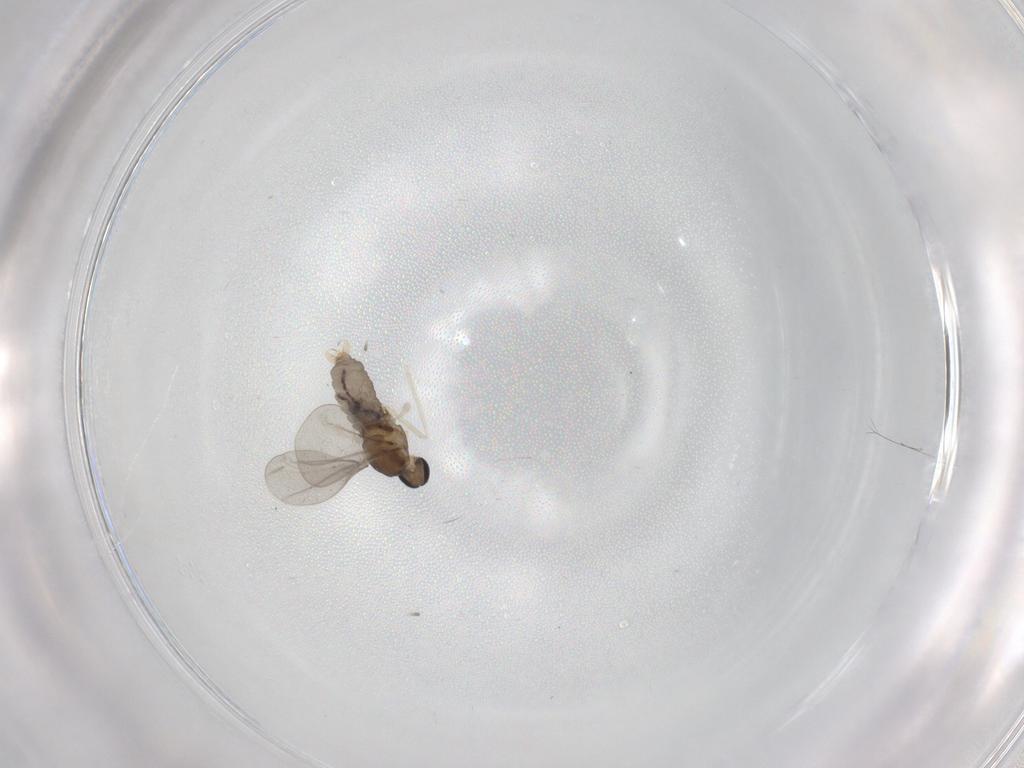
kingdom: Animalia
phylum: Arthropoda
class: Insecta
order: Diptera
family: Cecidomyiidae
